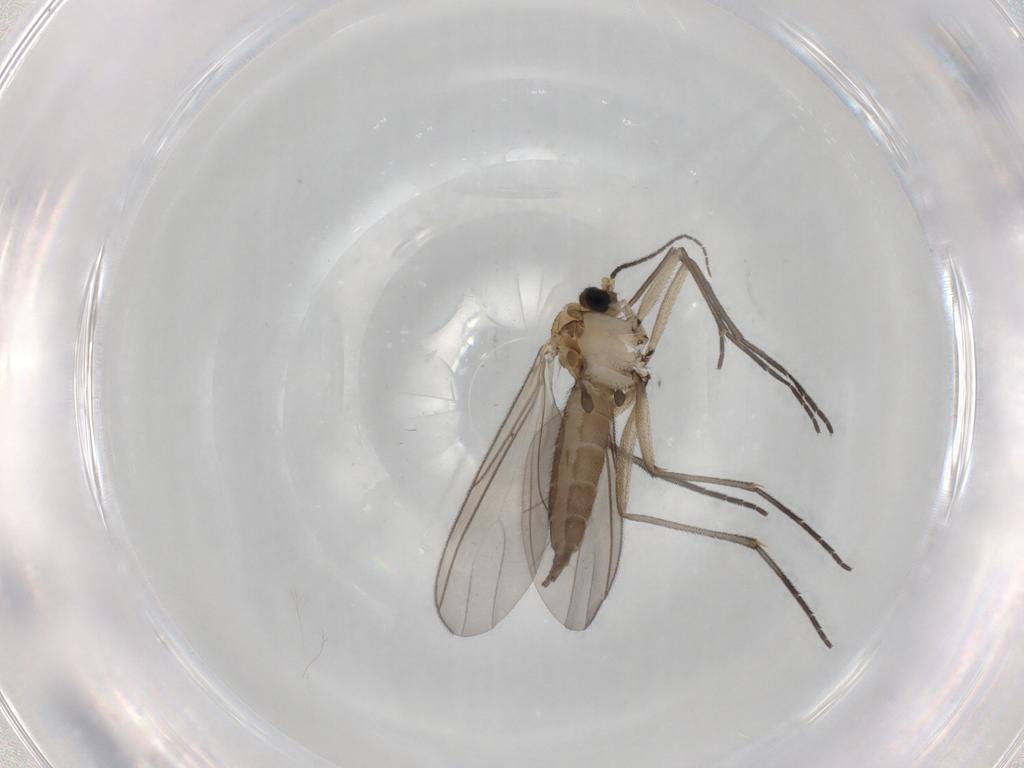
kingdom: Animalia
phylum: Arthropoda
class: Insecta
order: Diptera
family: Sciaridae
